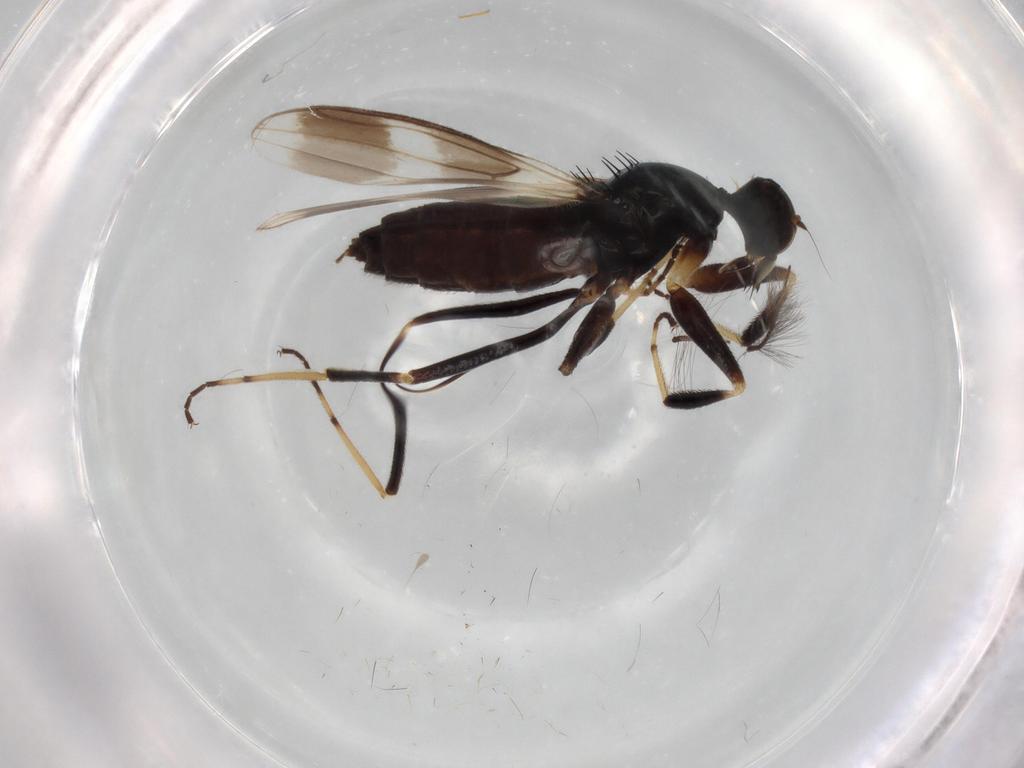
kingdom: Animalia
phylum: Arthropoda
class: Insecta
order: Diptera
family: Hybotidae
